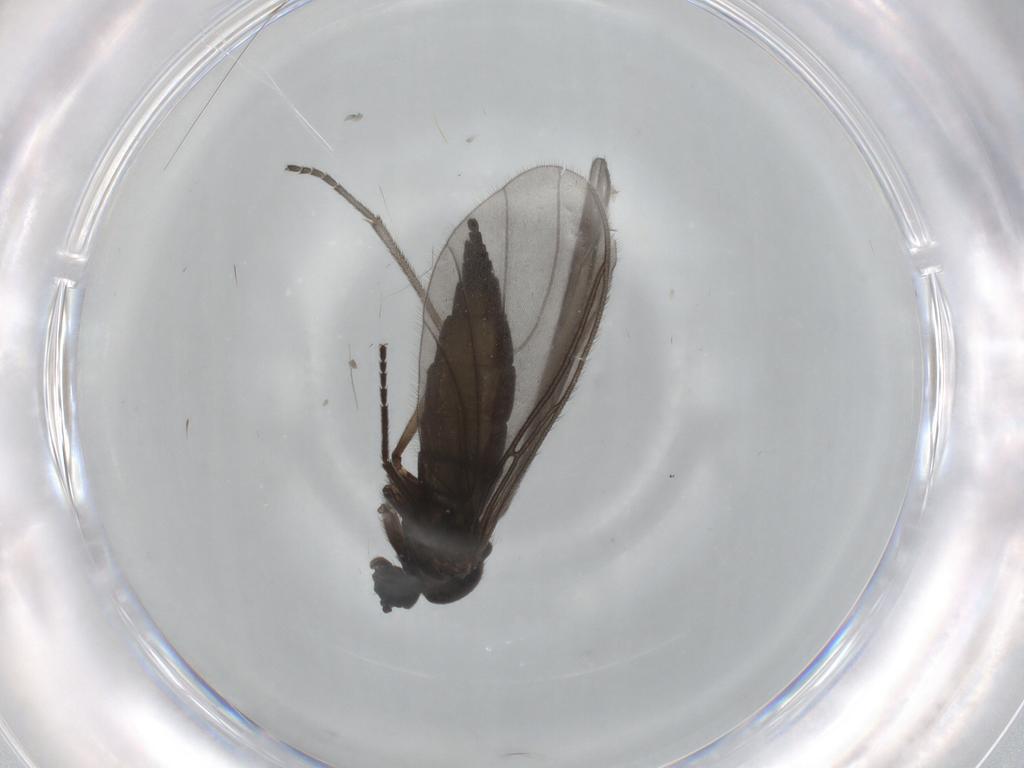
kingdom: Animalia
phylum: Arthropoda
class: Insecta
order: Diptera
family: Sciaridae
